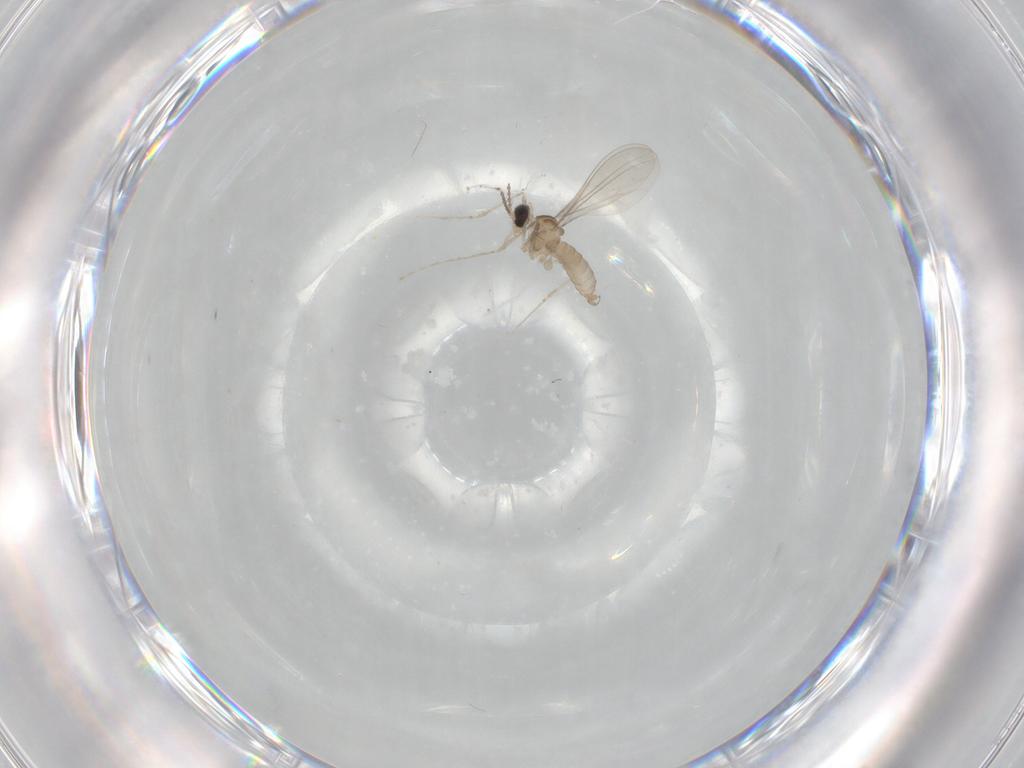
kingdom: Animalia
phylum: Arthropoda
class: Insecta
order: Diptera
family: Cecidomyiidae
